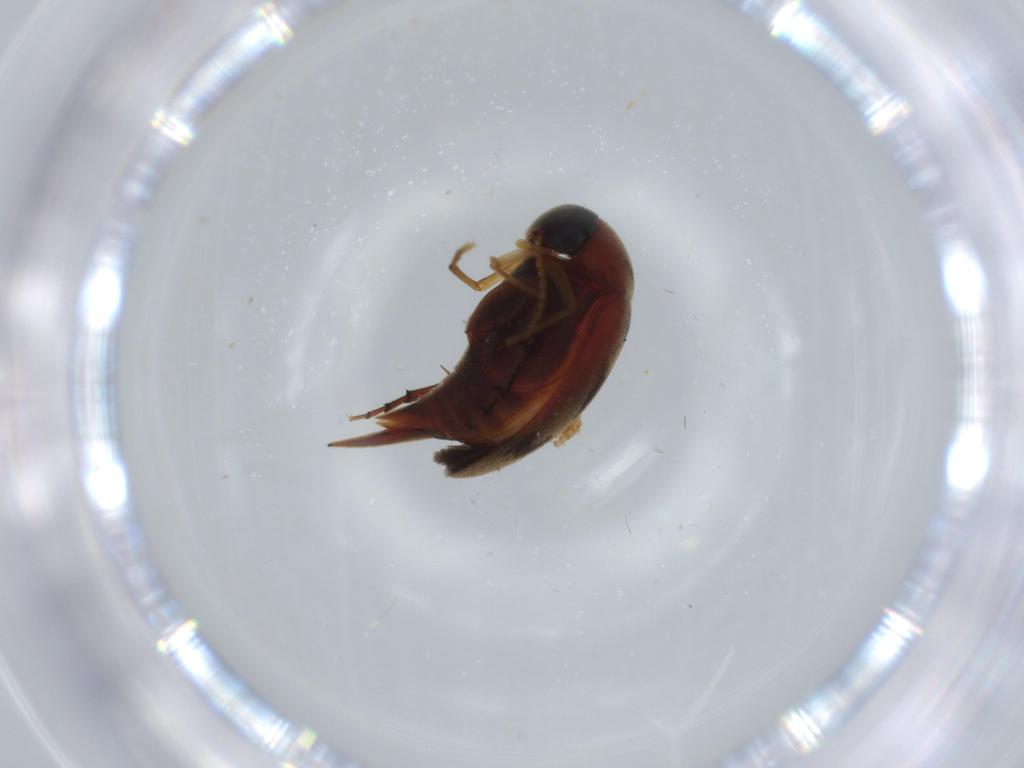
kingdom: Animalia
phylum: Arthropoda
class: Insecta
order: Coleoptera
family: Mordellidae
